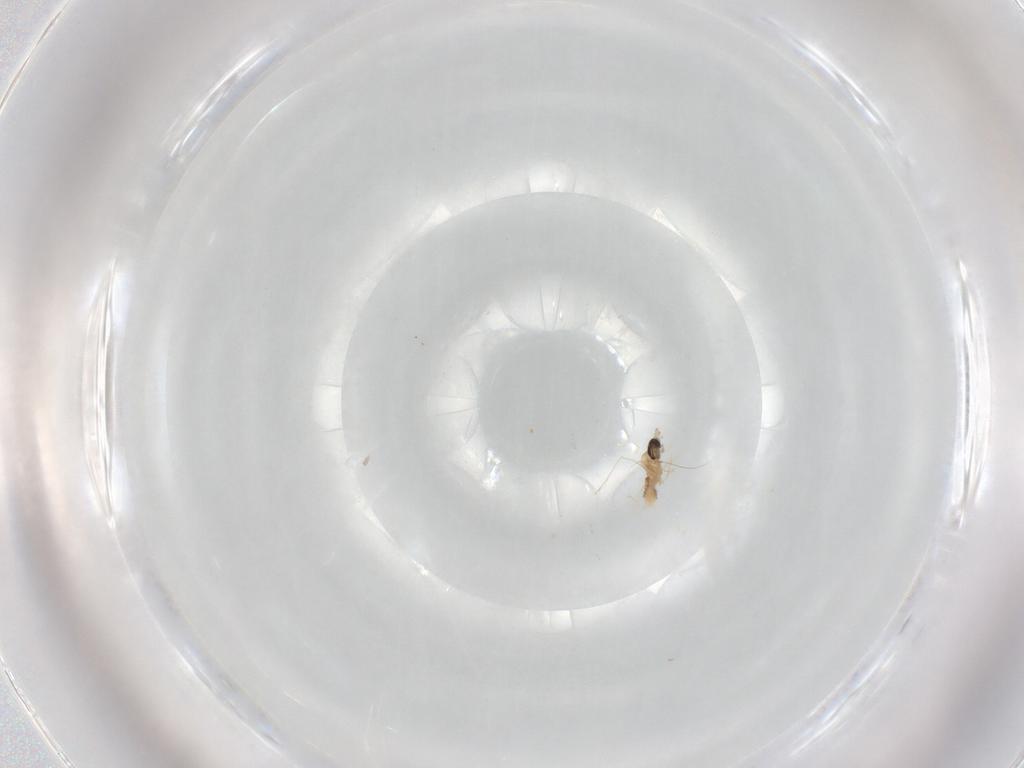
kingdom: Animalia
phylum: Arthropoda
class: Insecta
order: Diptera
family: Cecidomyiidae
